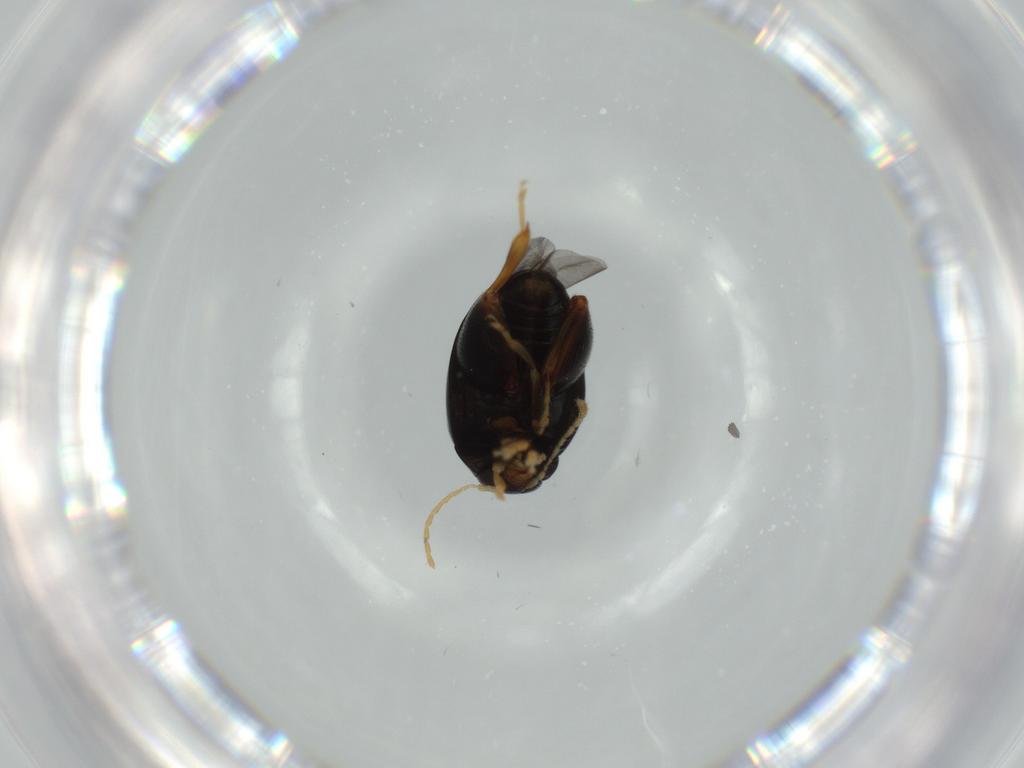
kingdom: Animalia
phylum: Arthropoda
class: Insecta
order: Coleoptera
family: Chrysomelidae
